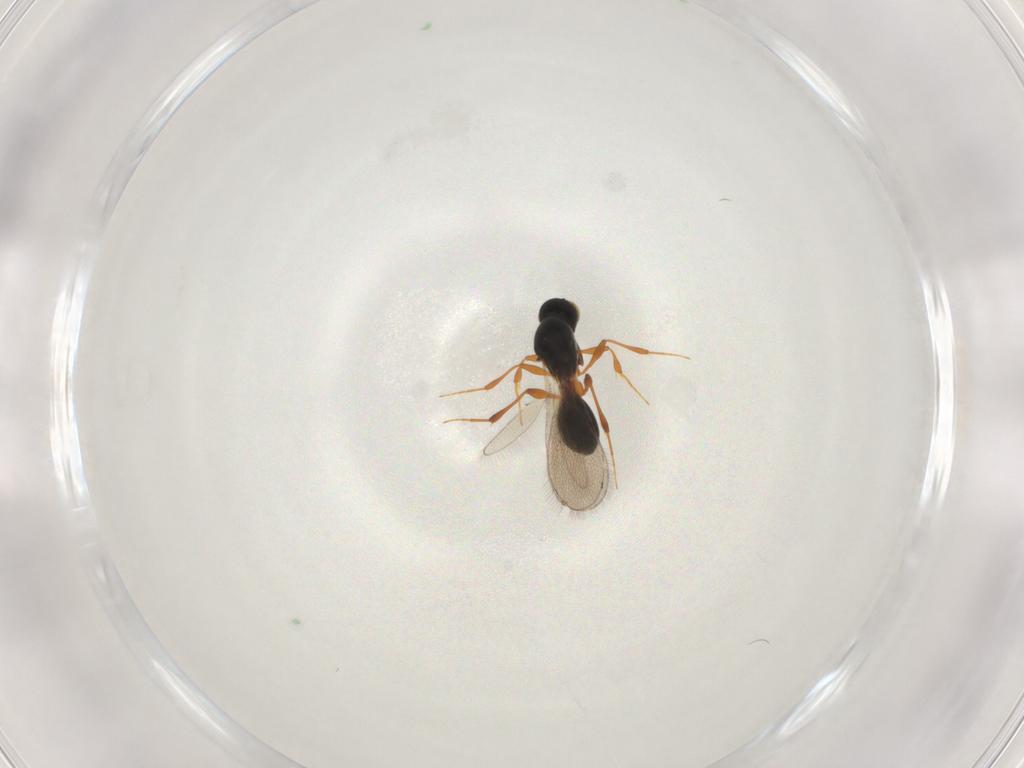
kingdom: Animalia
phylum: Arthropoda
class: Insecta
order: Hymenoptera
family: Platygastridae
